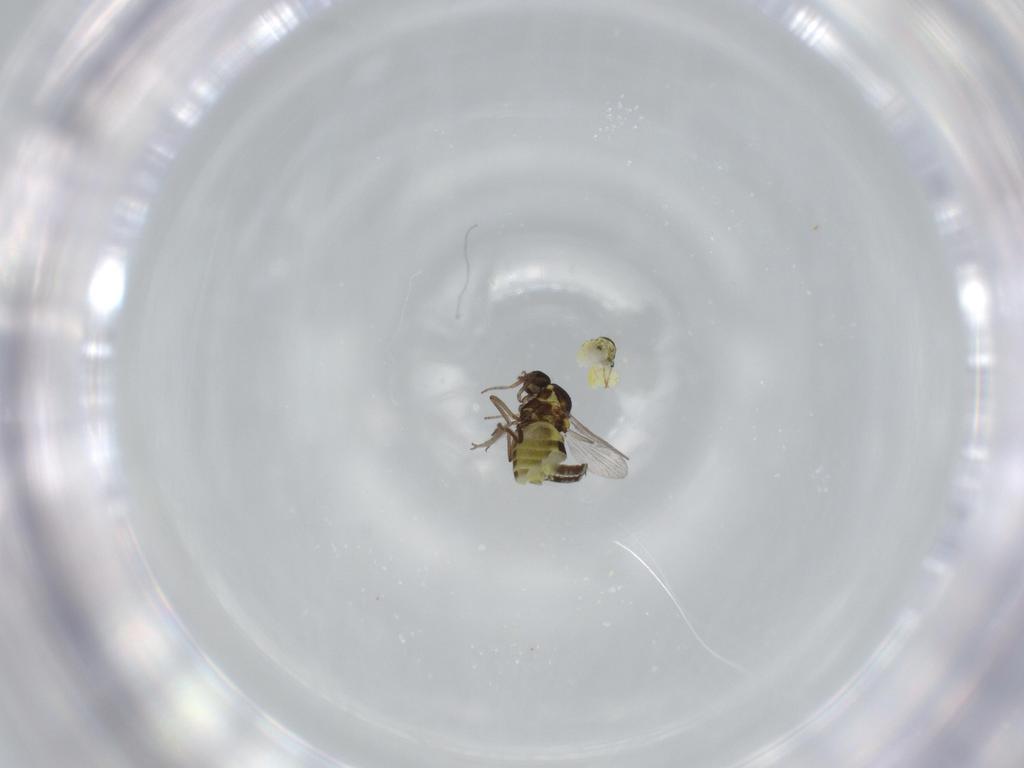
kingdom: Animalia
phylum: Arthropoda
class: Insecta
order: Diptera
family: Ceratopogonidae
